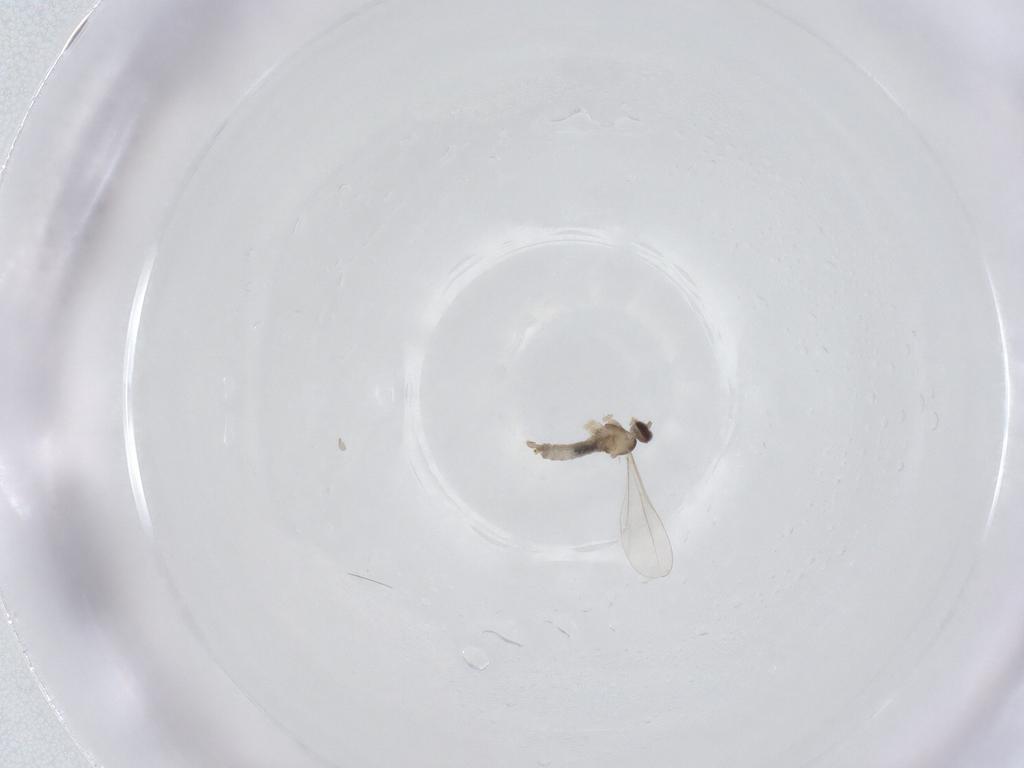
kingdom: Animalia
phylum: Arthropoda
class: Insecta
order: Diptera
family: Cecidomyiidae
